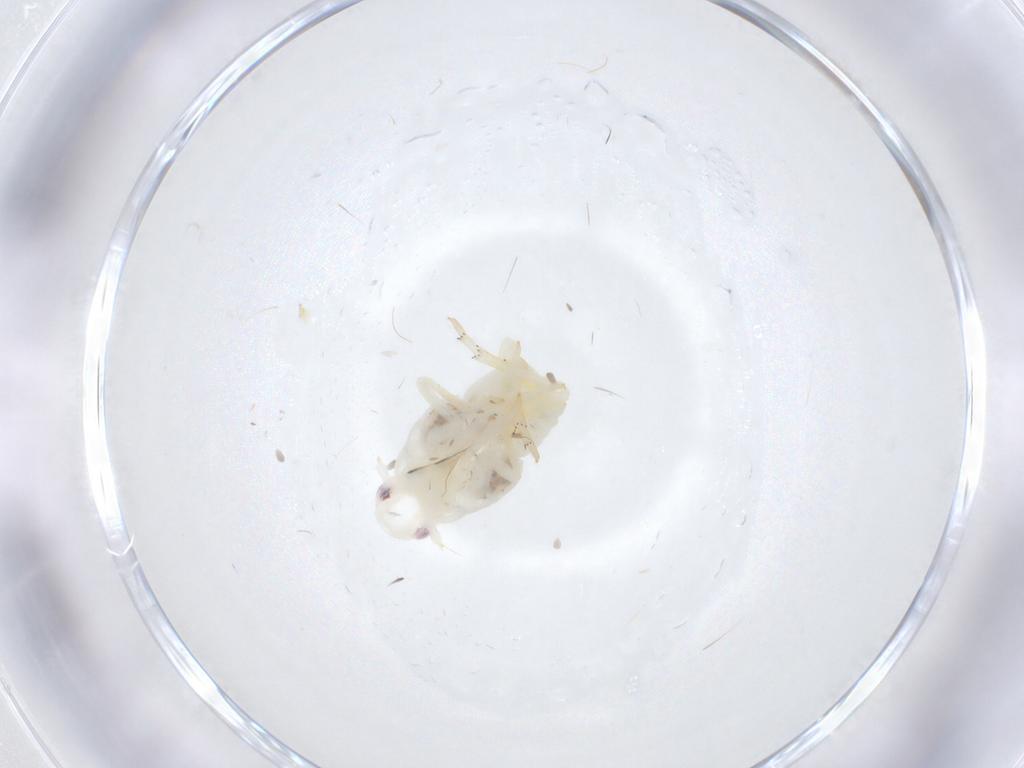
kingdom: Animalia
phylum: Arthropoda
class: Insecta
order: Hemiptera
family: Flatidae
